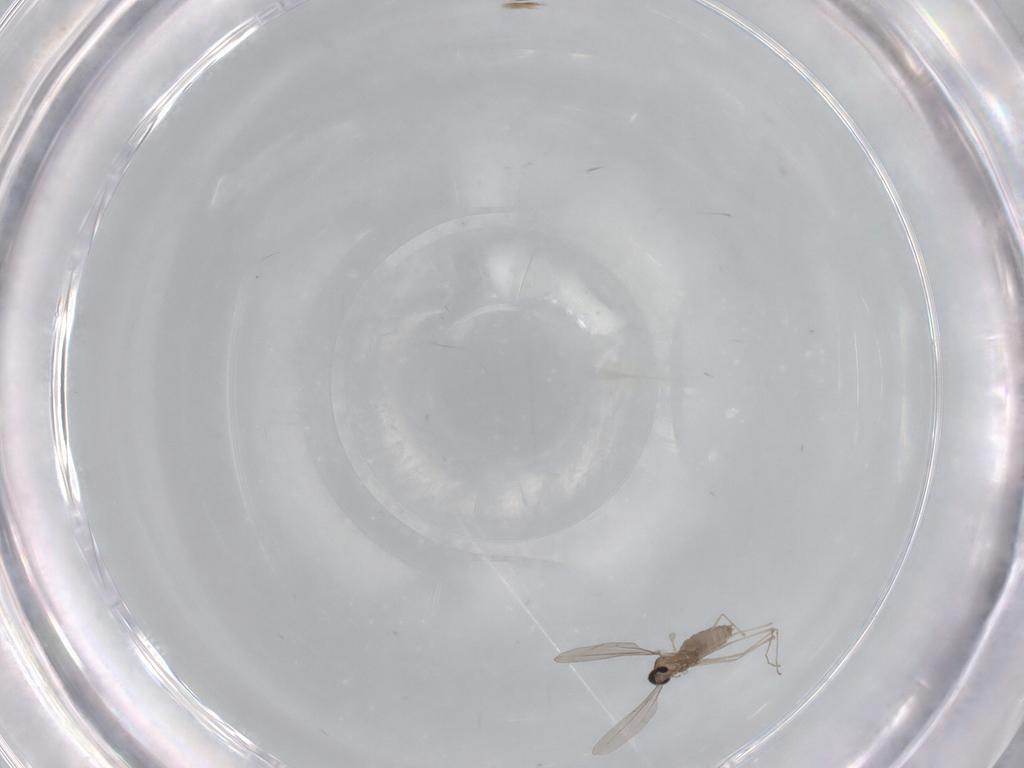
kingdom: Animalia
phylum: Arthropoda
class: Insecta
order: Diptera
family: Cecidomyiidae
